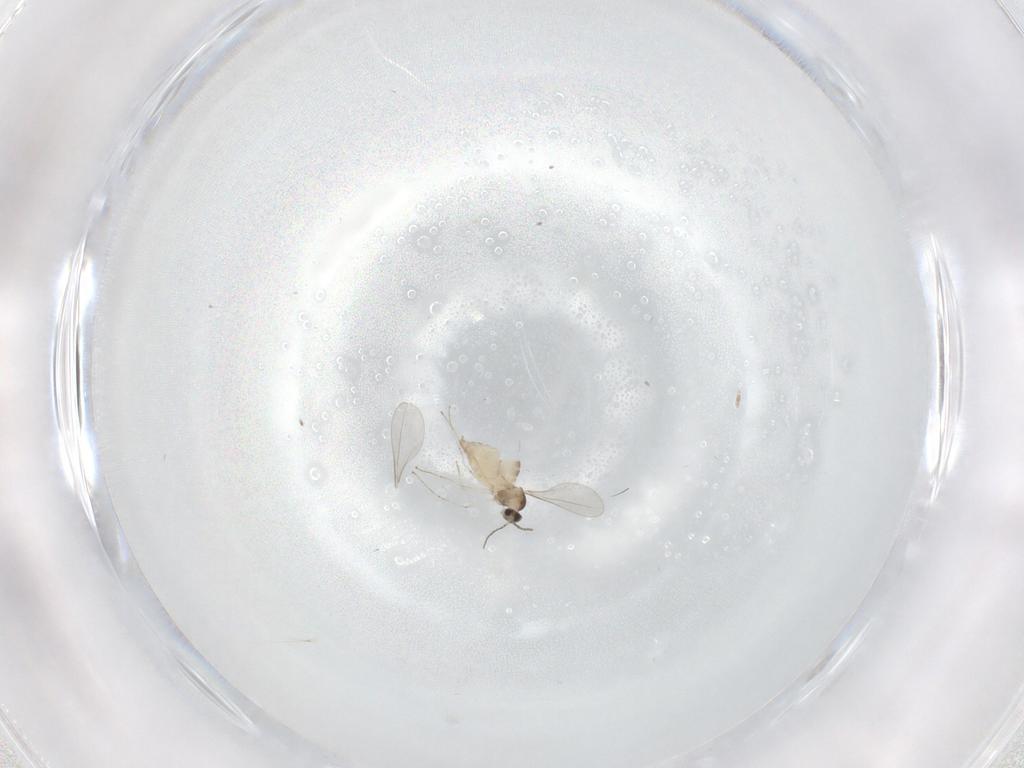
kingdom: Animalia
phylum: Arthropoda
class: Insecta
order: Diptera
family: Cecidomyiidae
